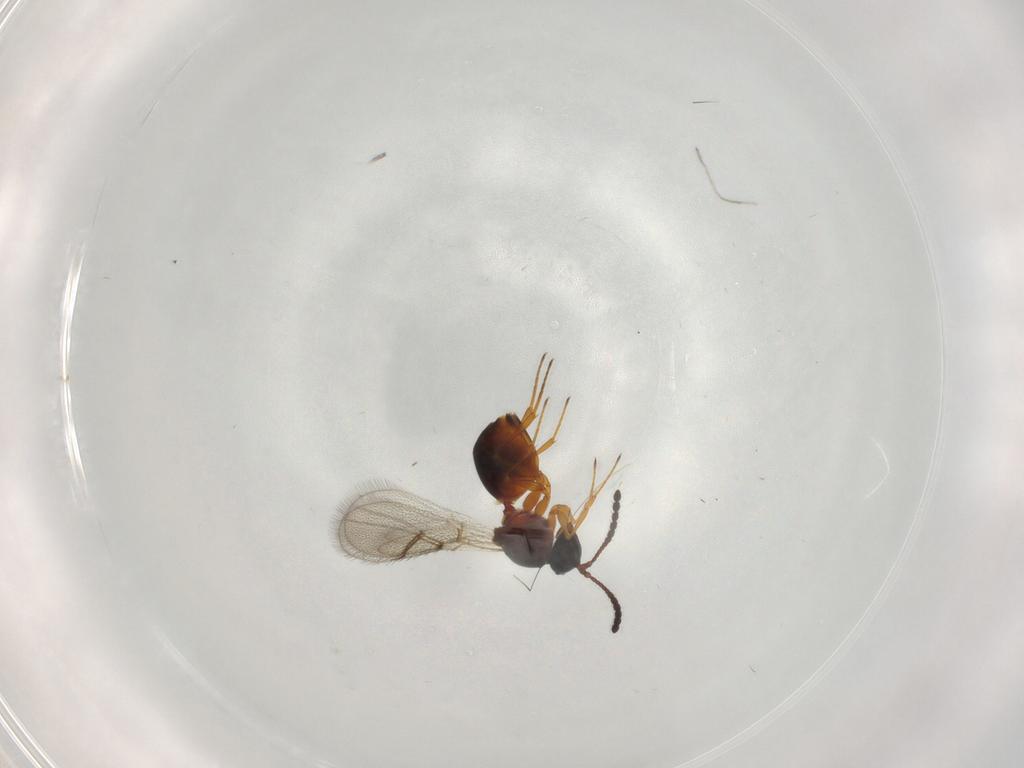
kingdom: Animalia
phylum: Arthropoda
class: Insecta
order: Hymenoptera
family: Figitidae
